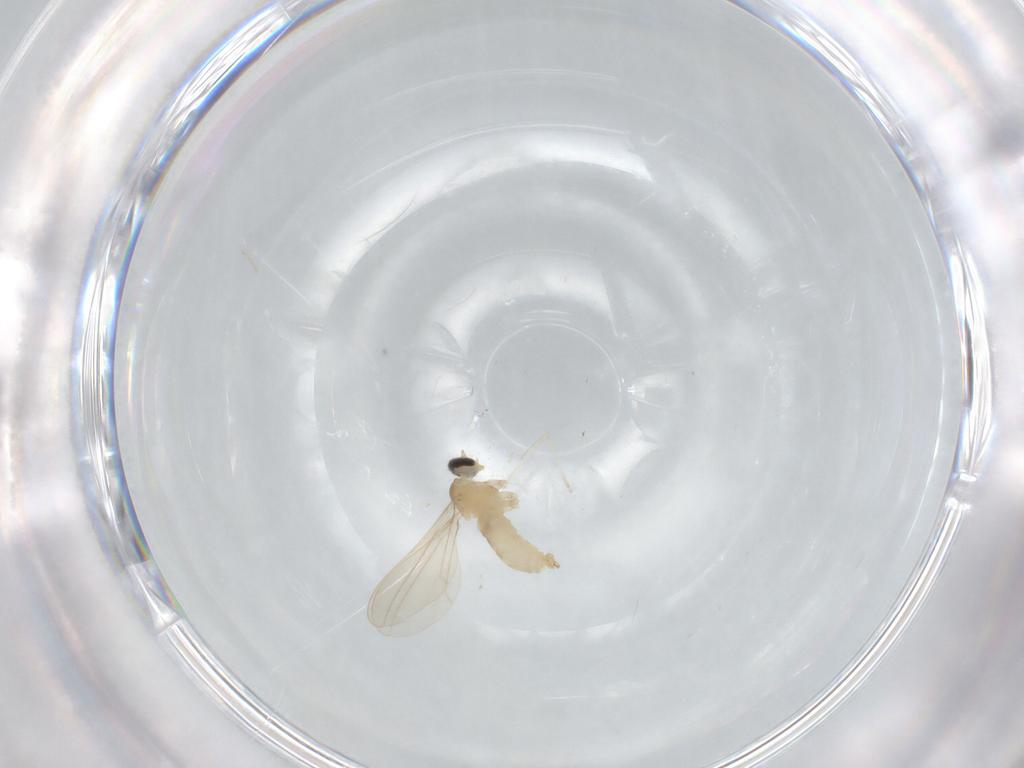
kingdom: Animalia
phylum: Arthropoda
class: Insecta
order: Diptera
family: Cecidomyiidae
